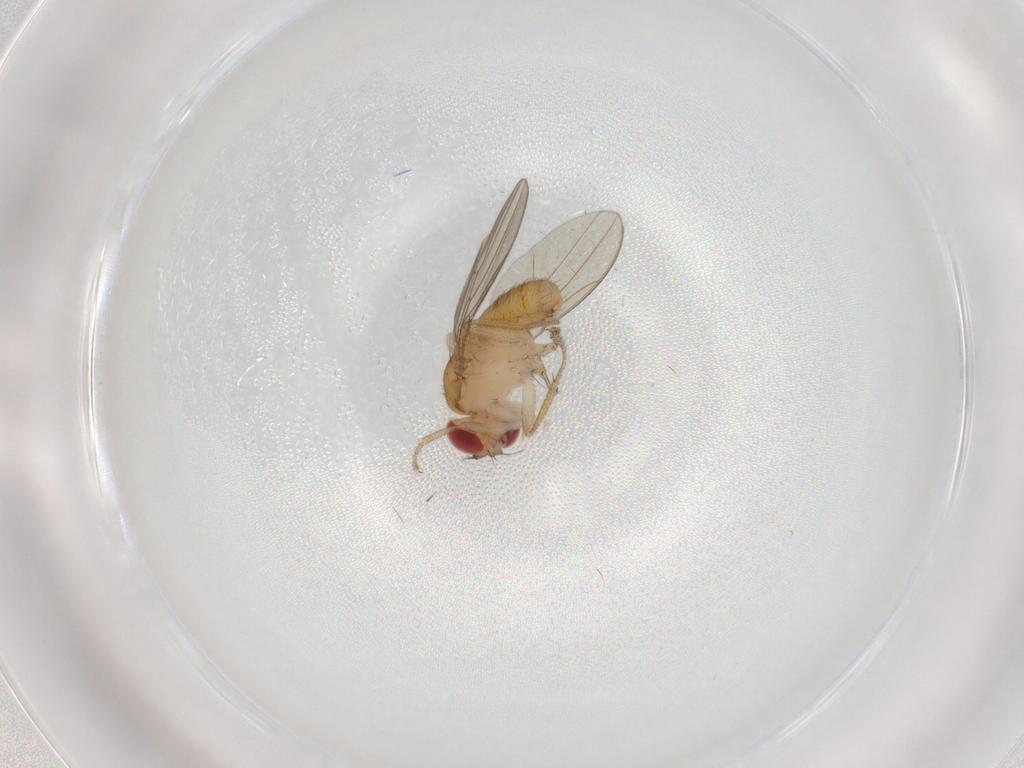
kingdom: Animalia
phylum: Arthropoda
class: Insecta
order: Diptera
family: Drosophilidae
